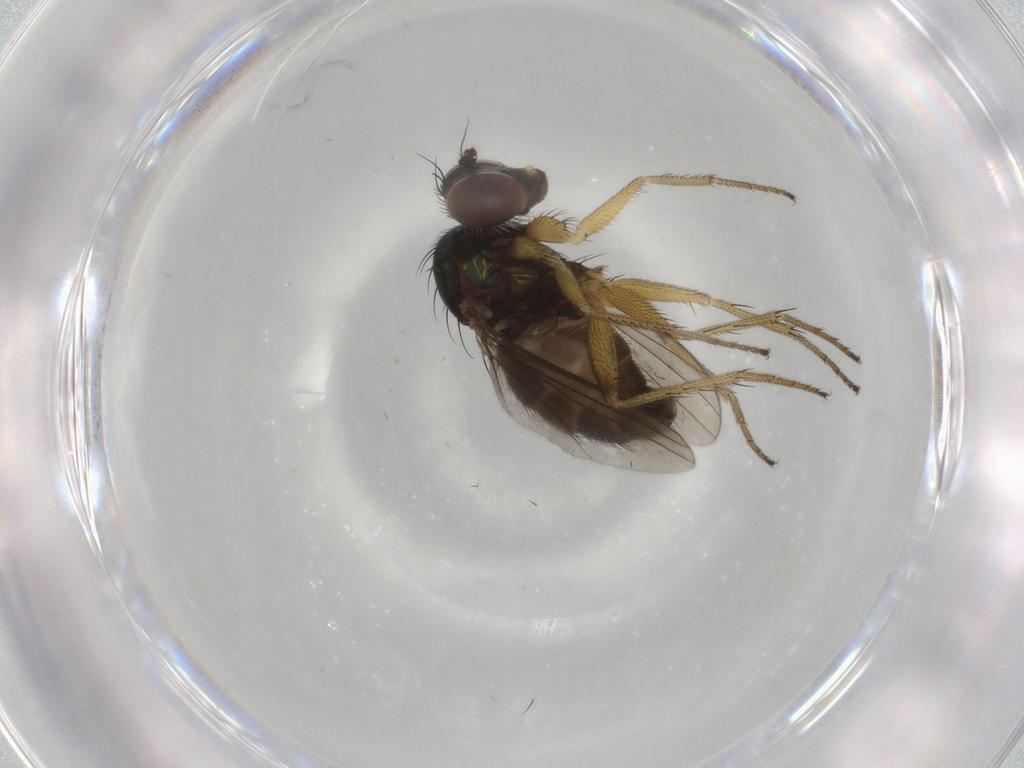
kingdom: Animalia
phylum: Arthropoda
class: Insecta
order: Diptera
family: Dolichopodidae
